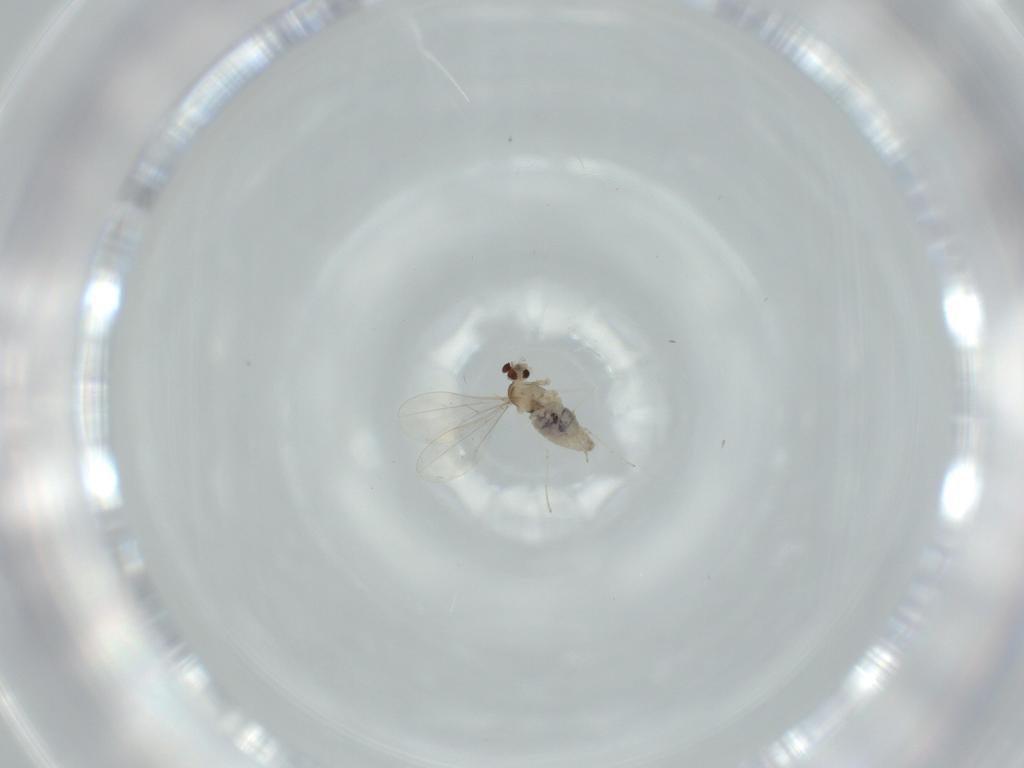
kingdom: Animalia
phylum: Arthropoda
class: Insecta
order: Diptera
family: Cecidomyiidae
